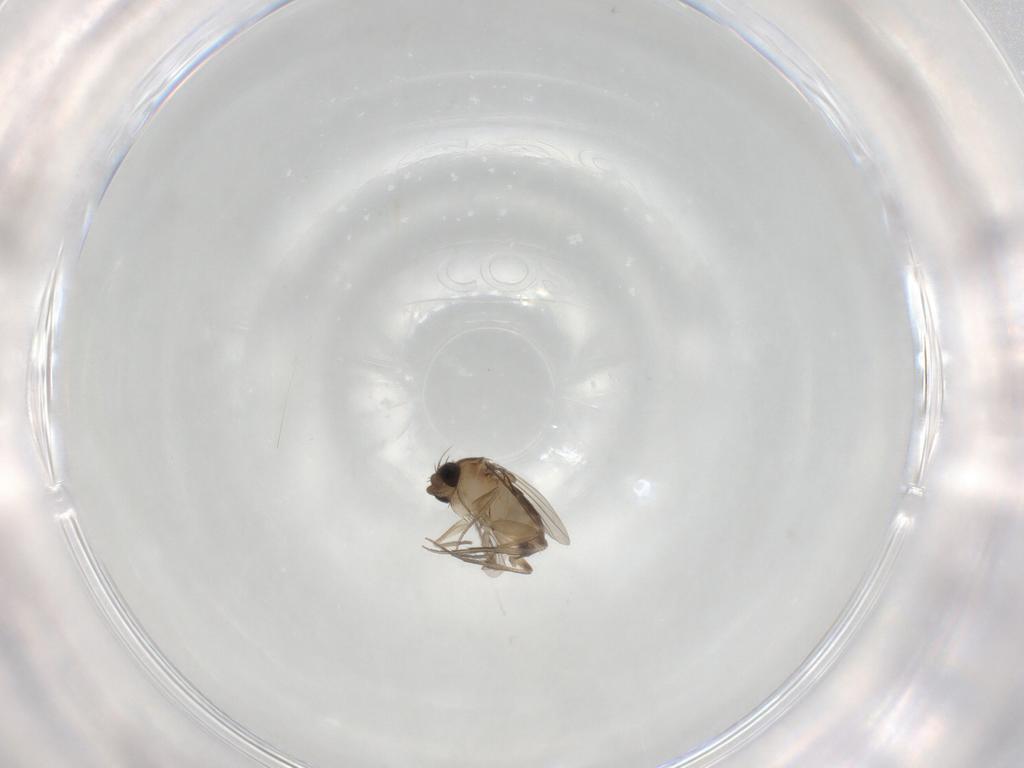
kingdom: Animalia
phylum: Arthropoda
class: Insecta
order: Diptera
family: Phoridae
